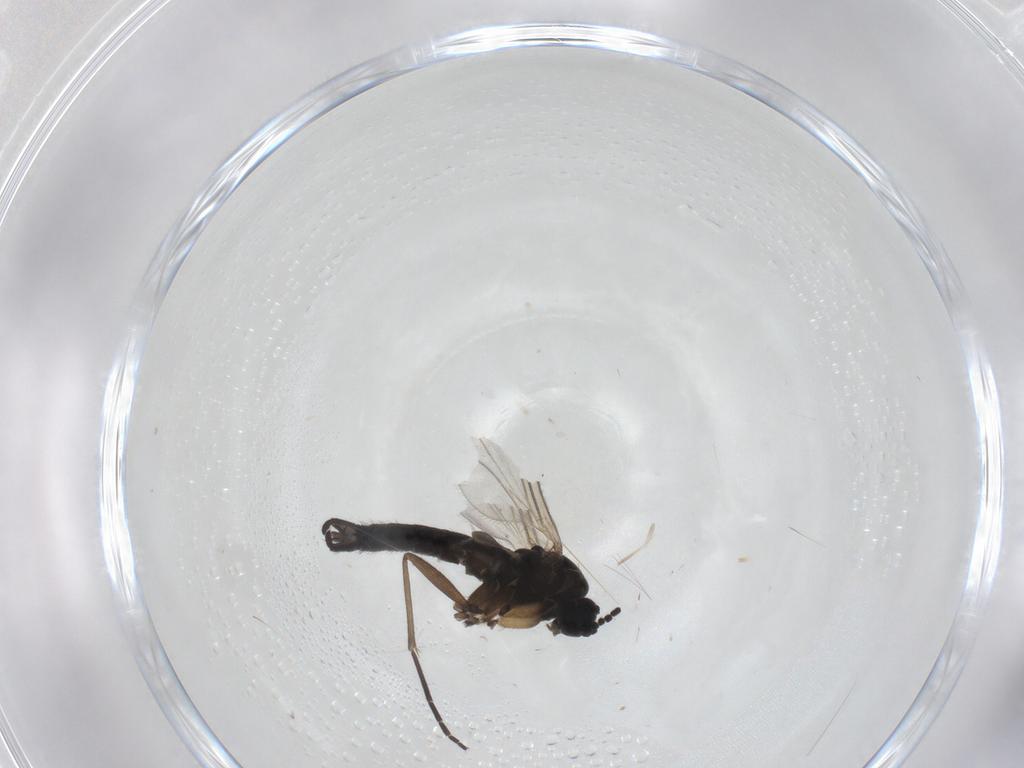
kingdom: Animalia
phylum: Arthropoda
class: Insecta
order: Diptera
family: Sciaridae
